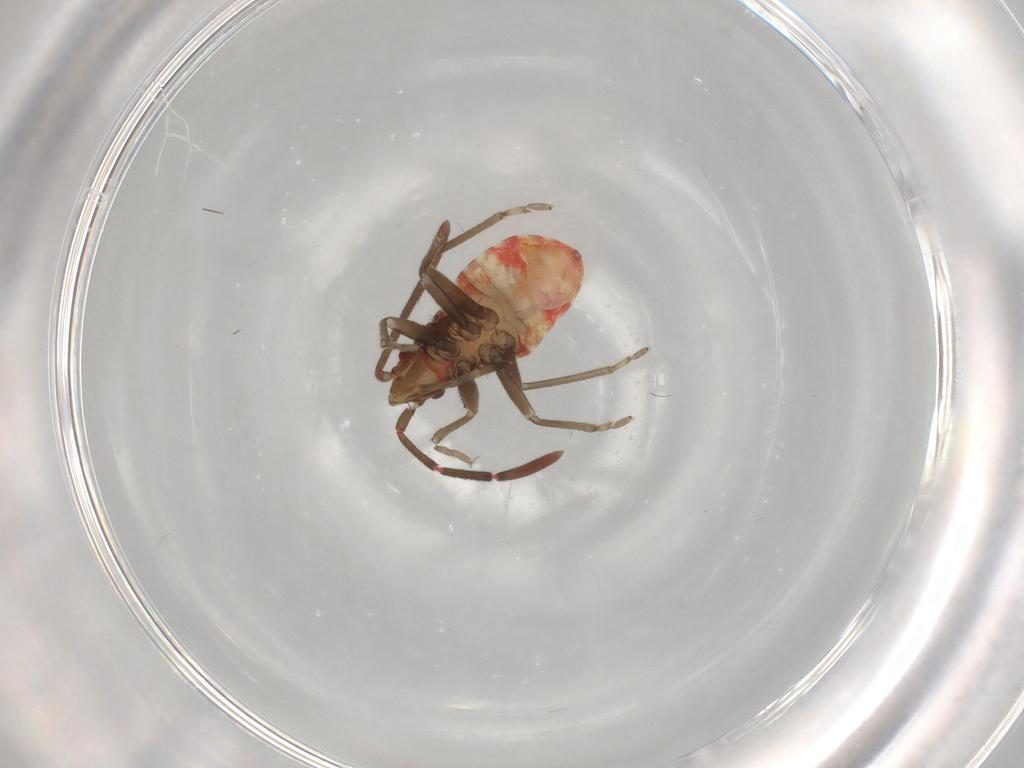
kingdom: Animalia
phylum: Arthropoda
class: Insecta
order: Hemiptera
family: Rhyparochromidae
